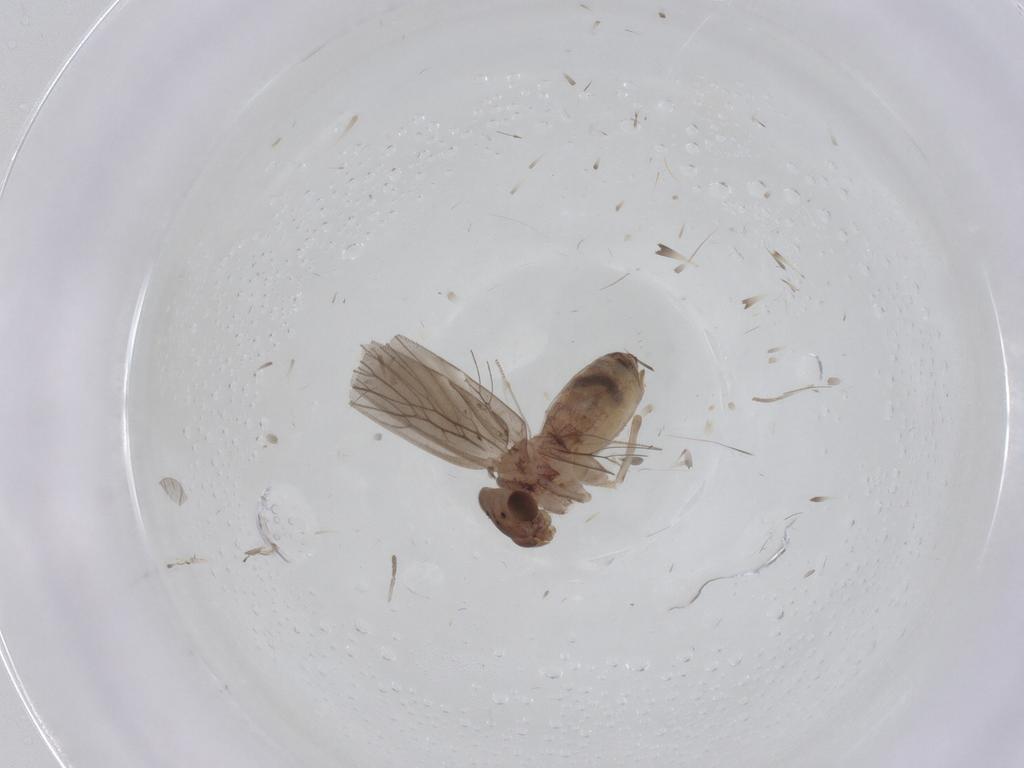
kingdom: Animalia
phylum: Arthropoda
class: Insecta
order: Psocodea
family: Lepidopsocidae
